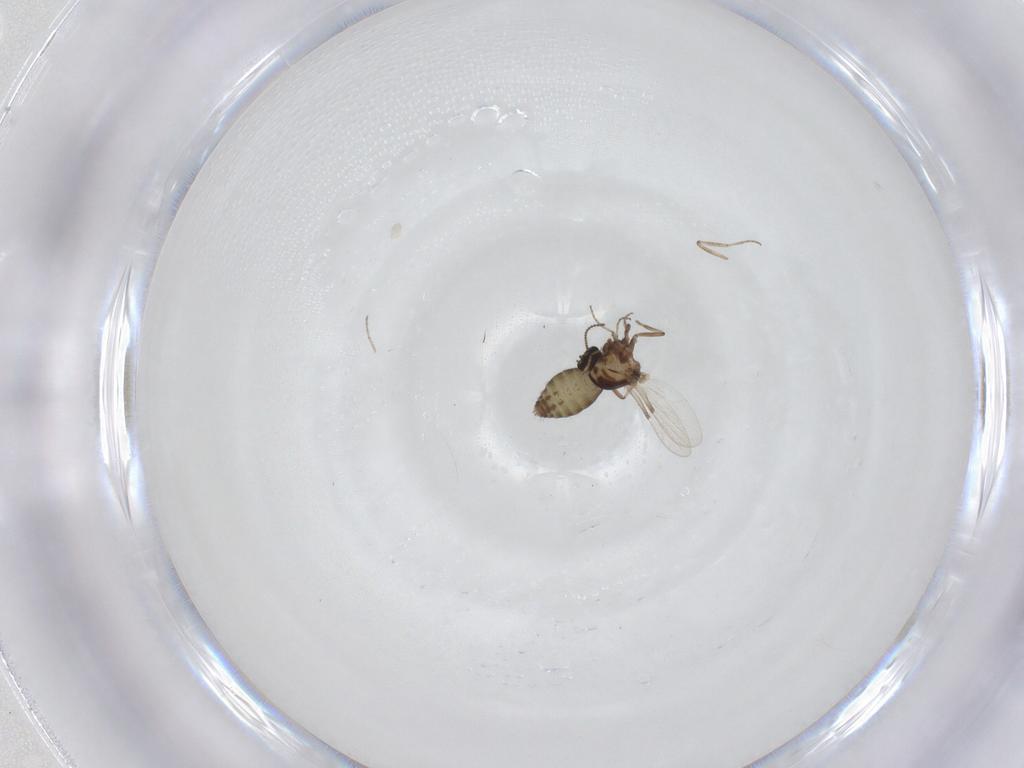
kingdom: Animalia
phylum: Arthropoda
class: Insecta
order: Diptera
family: Ceratopogonidae
